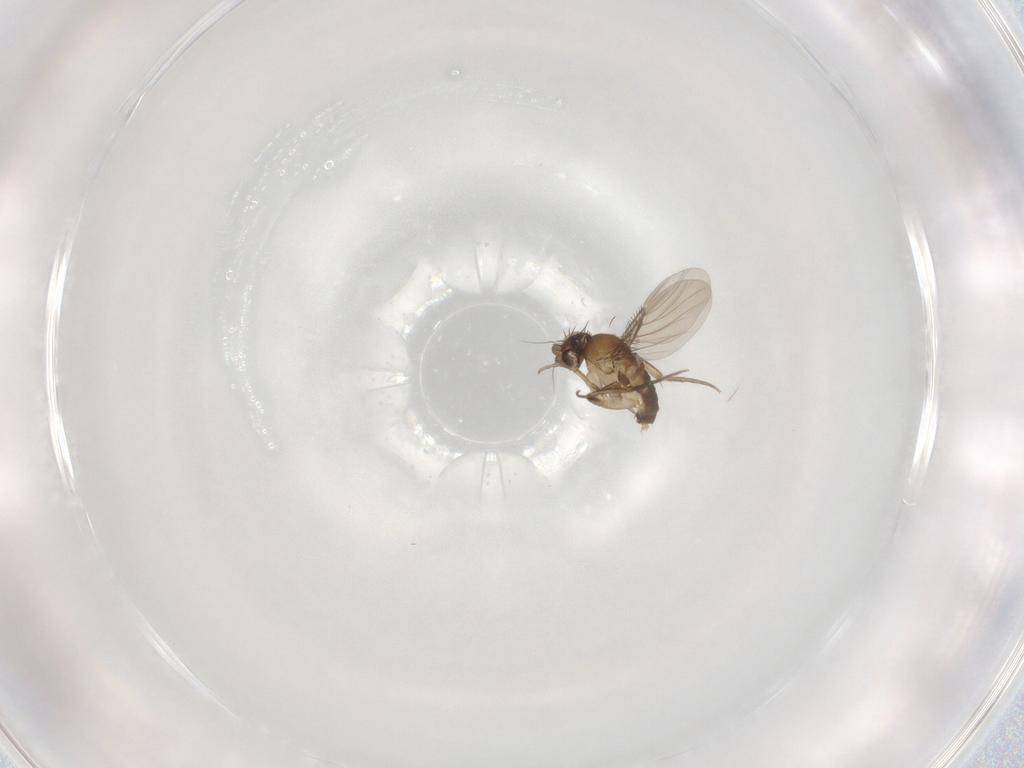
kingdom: Animalia
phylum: Arthropoda
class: Insecta
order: Diptera
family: Phoridae
